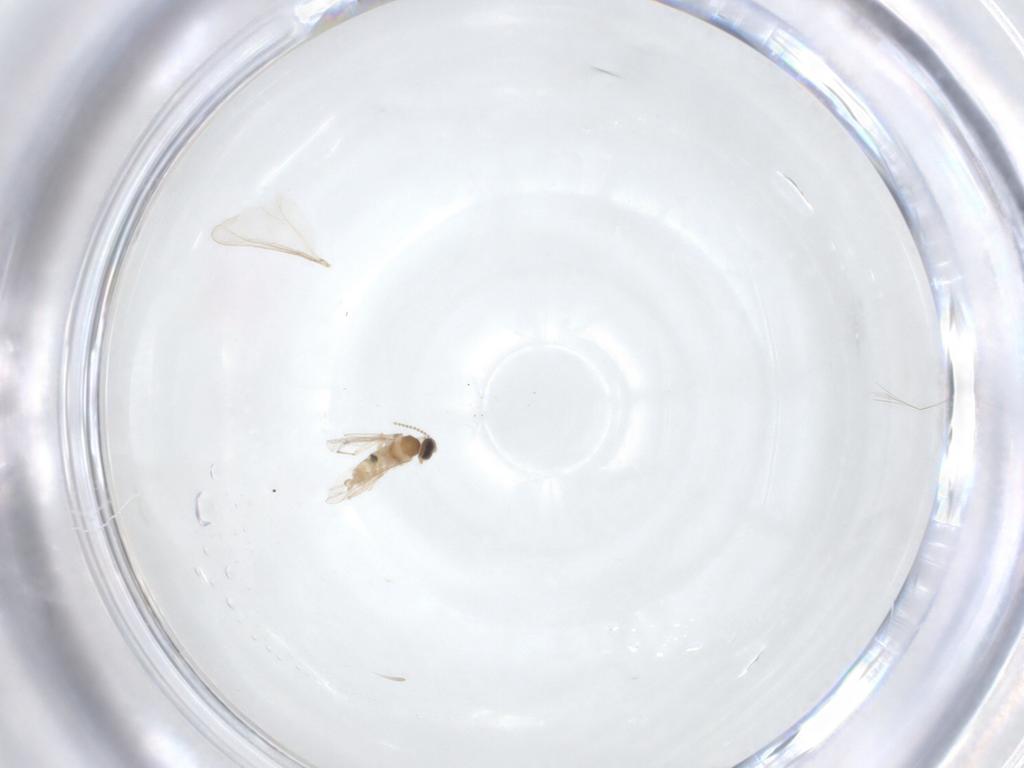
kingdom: Animalia
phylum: Arthropoda
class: Insecta
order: Diptera
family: Cecidomyiidae
